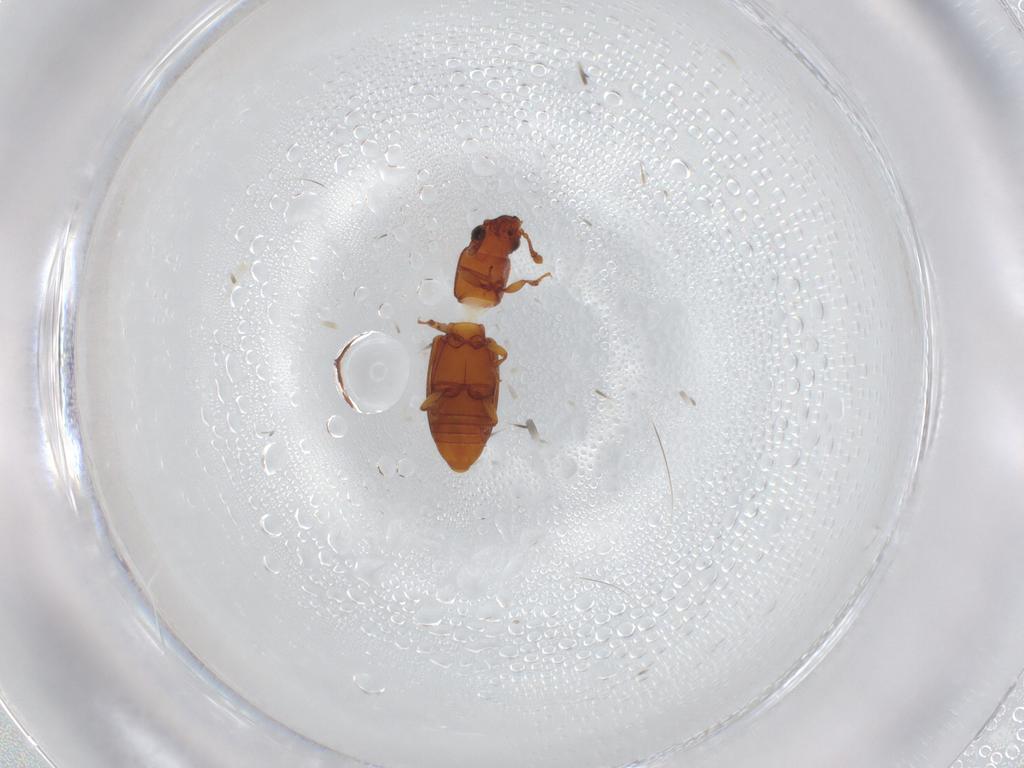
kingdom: Animalia
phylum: Arthropoda
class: Insecta
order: Coleoptera
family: Monotomidae
